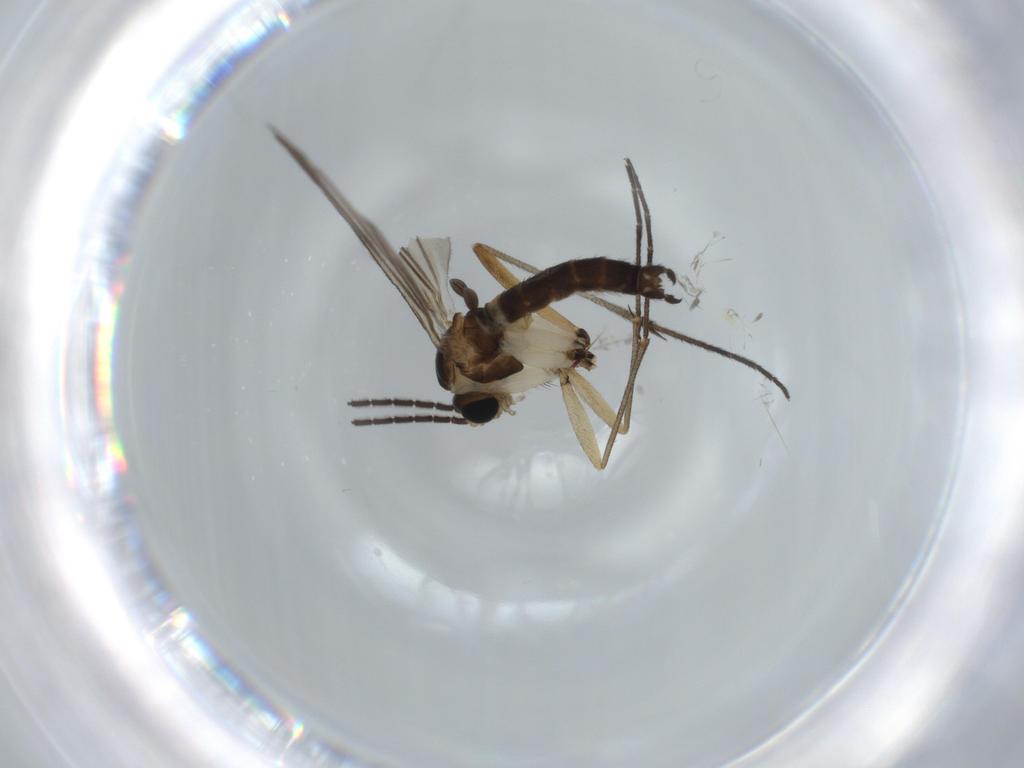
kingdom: Animalia
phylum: Arthropoda
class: Insecta
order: Diptera
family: Sciaridae
